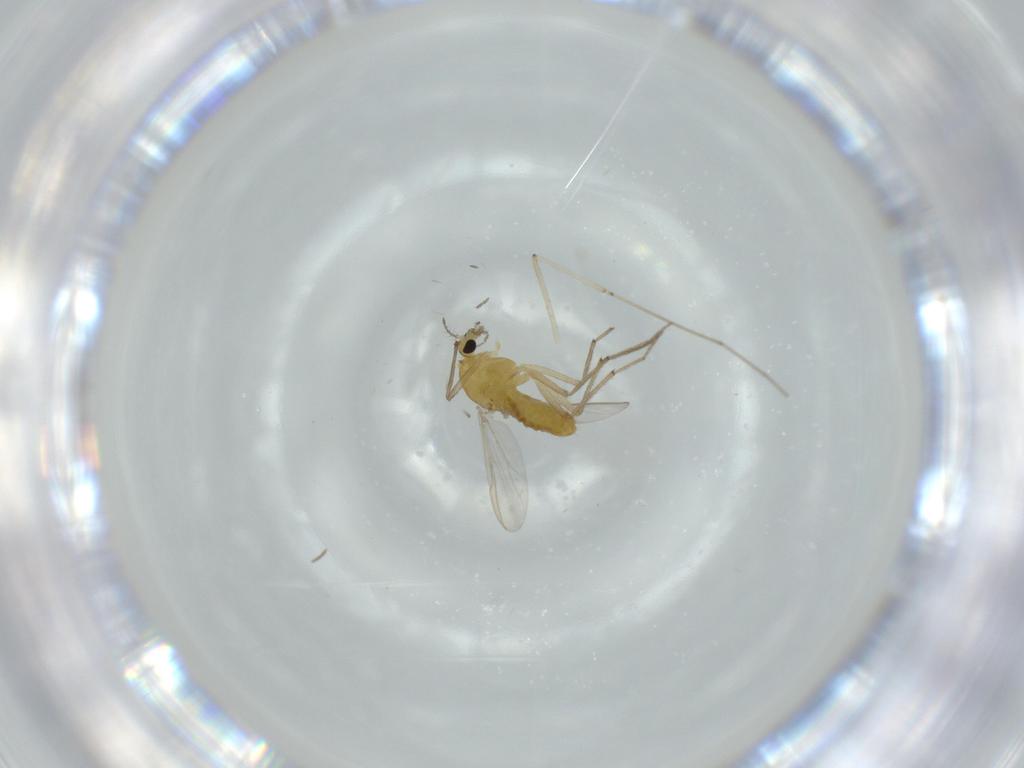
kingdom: Animalia
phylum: Arthropoda
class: Insecta
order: Diptera
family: Chironomidae
